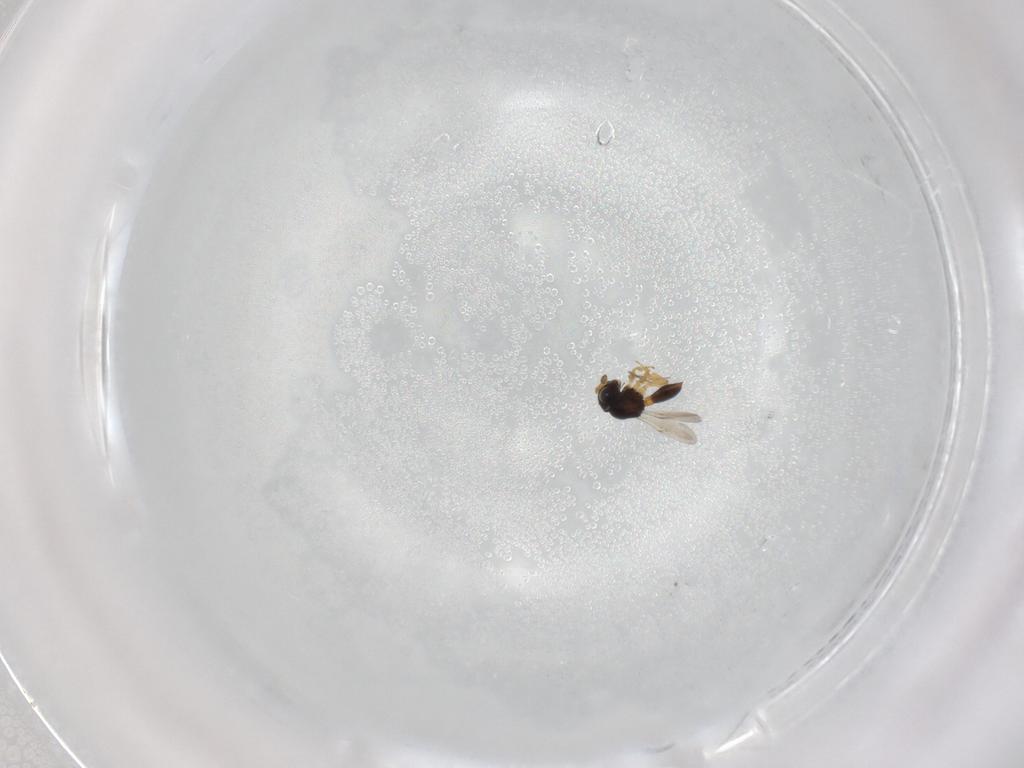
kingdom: Animalia
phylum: Arthropoda
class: Insecta
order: Hymenoptera
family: Scelionidae
